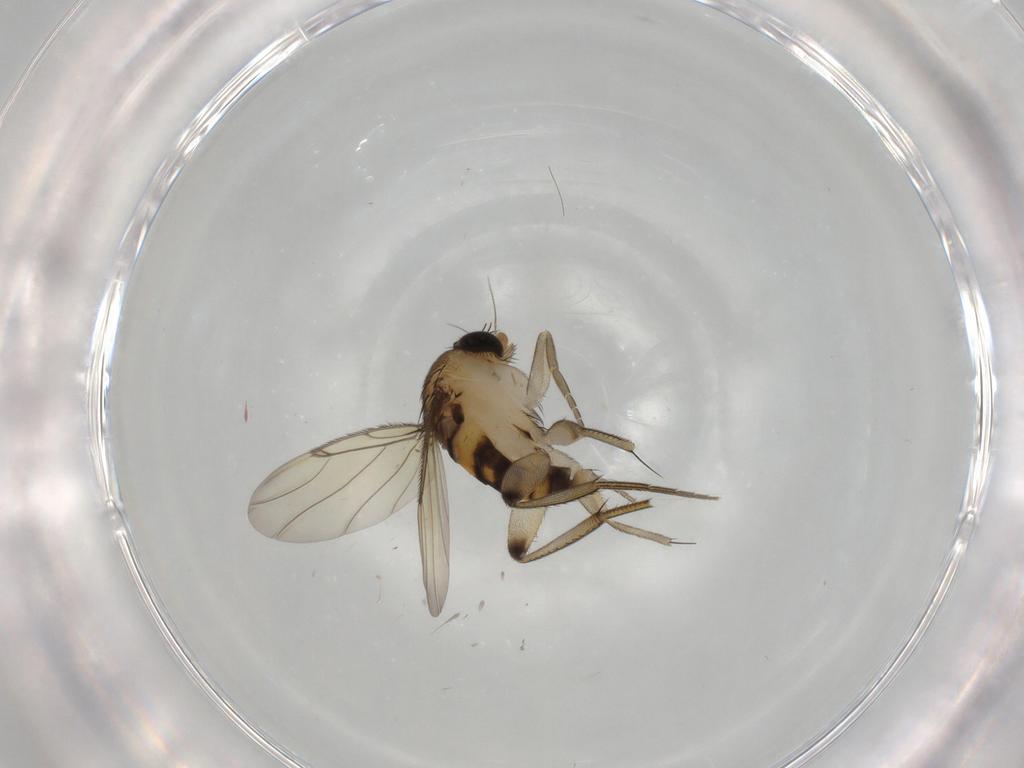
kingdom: Animalia
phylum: Arthropoda
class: Insecta
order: Diptera
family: Phoridae
